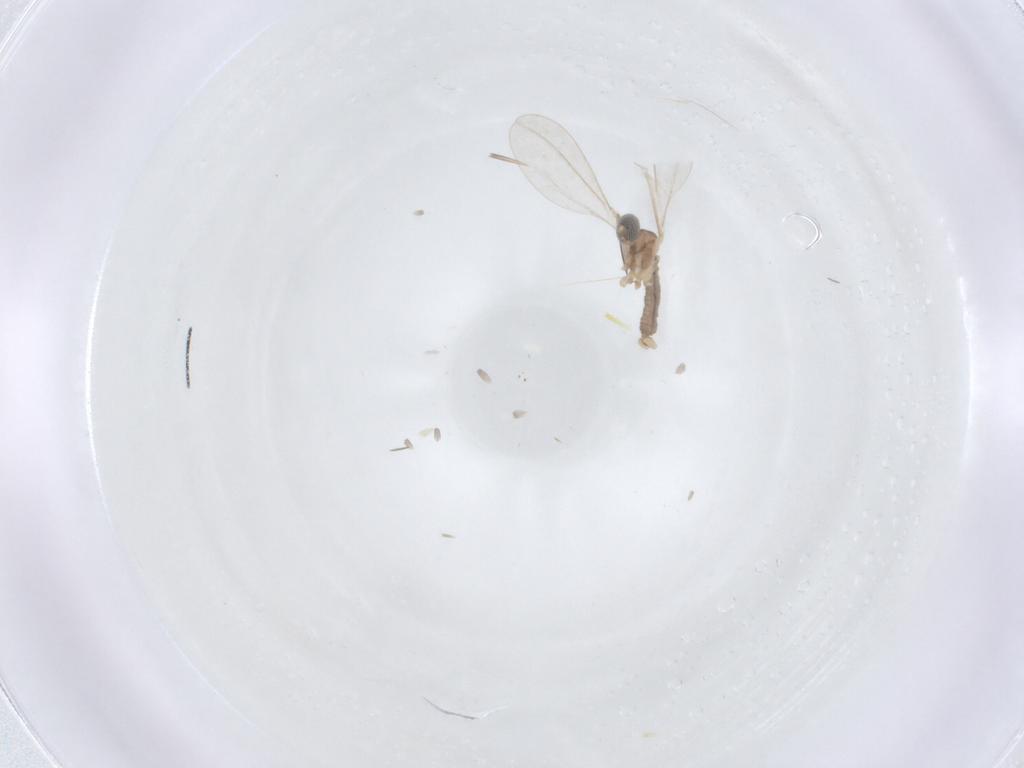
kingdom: Animalia
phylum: Arthropoda
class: Insecta
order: Diptera
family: Cecidomyiidae
